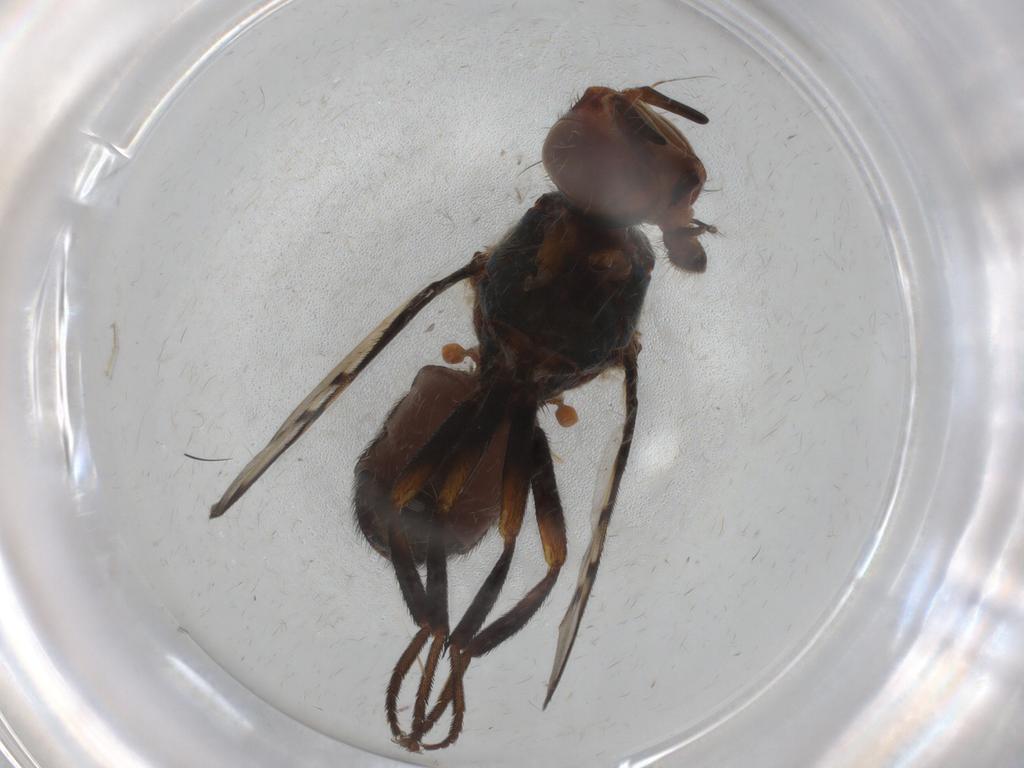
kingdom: Animalia
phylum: Arthropoda
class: Insecta
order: Diptera
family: Platystomatidae
